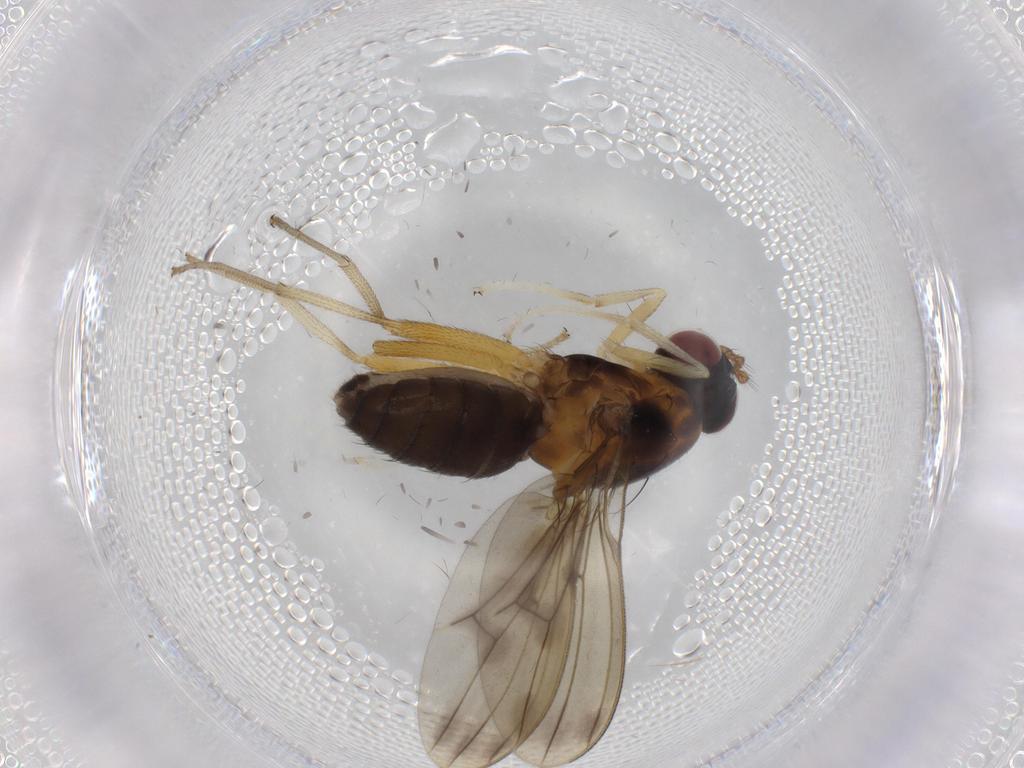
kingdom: Animalia
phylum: Arthropoda
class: Insecta
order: Diptera
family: Lauxaniidae
